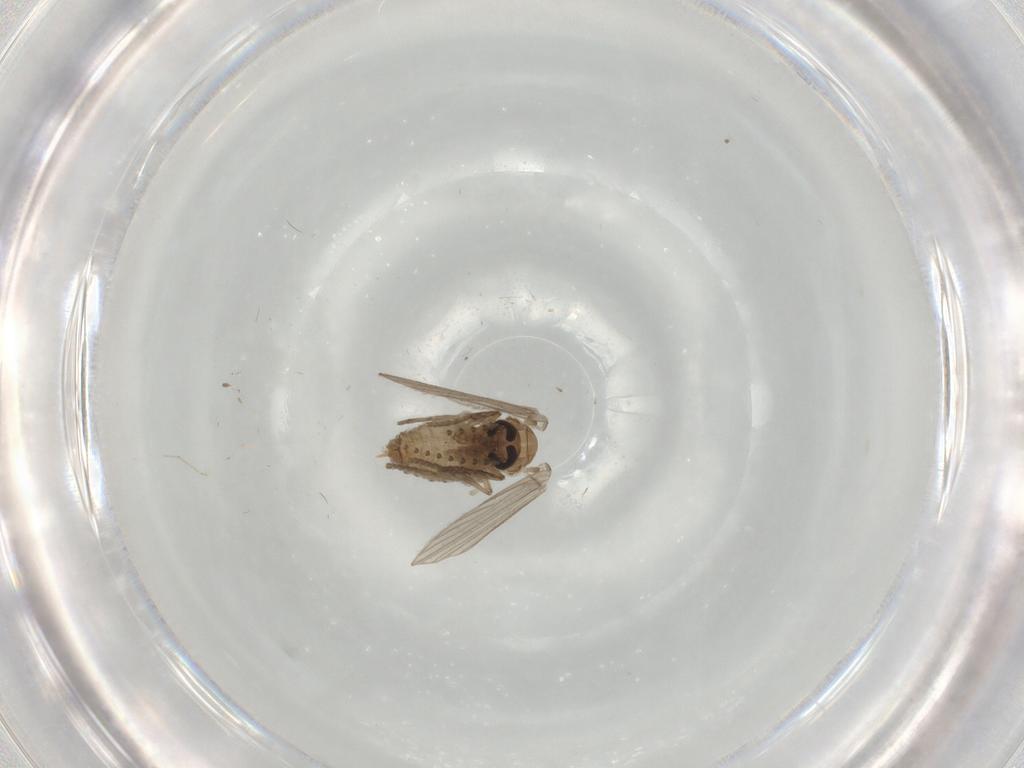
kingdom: Animalia
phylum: Arthropoda
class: Insecta
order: Diptera
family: Psychodidae
